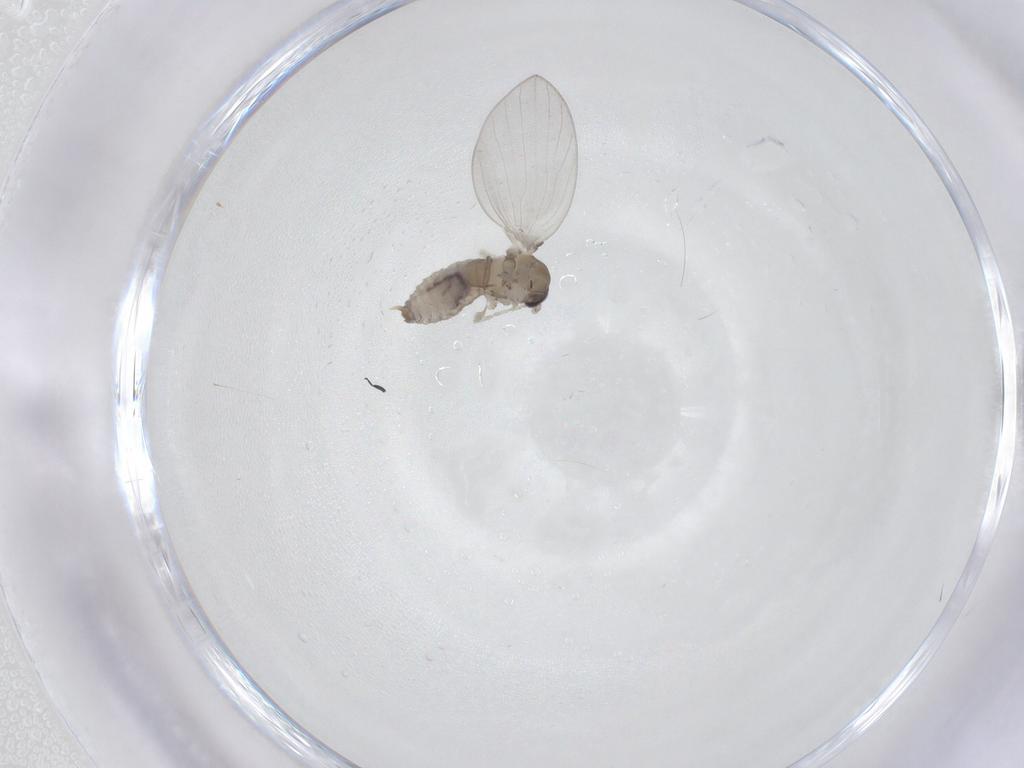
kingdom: Animalia
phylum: Arthropoda
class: Insecta
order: Diptera
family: Psychodidae
